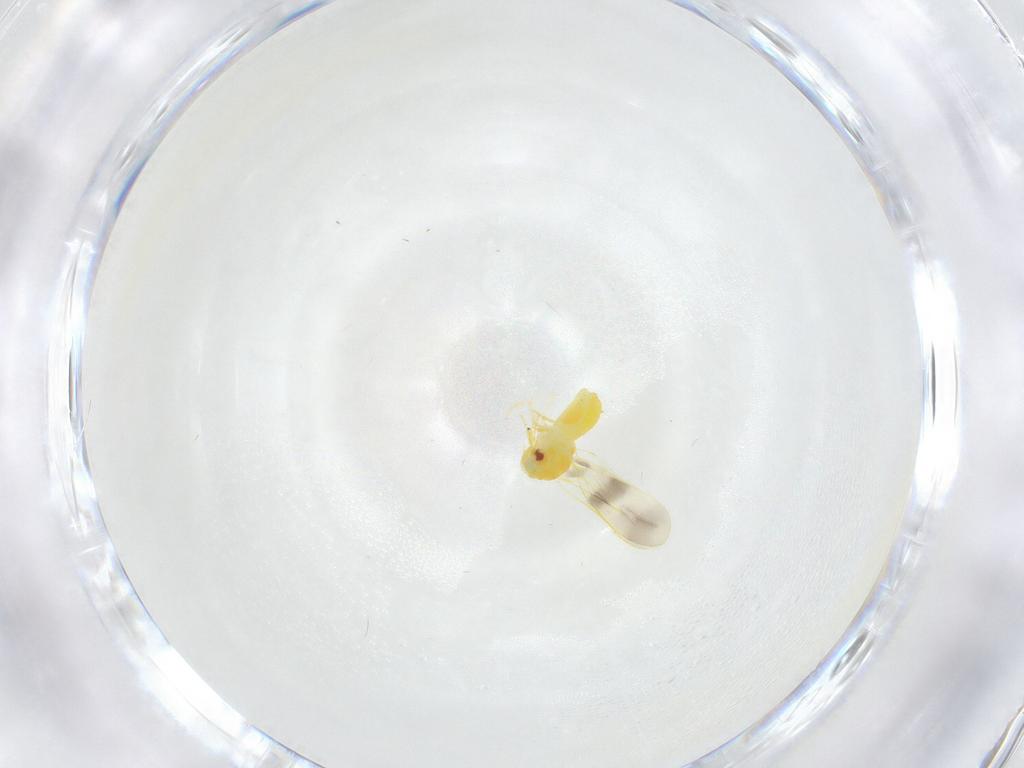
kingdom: Animalia
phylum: Arthropoda
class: Insecta
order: Hemiptera
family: Aleyrodidae
